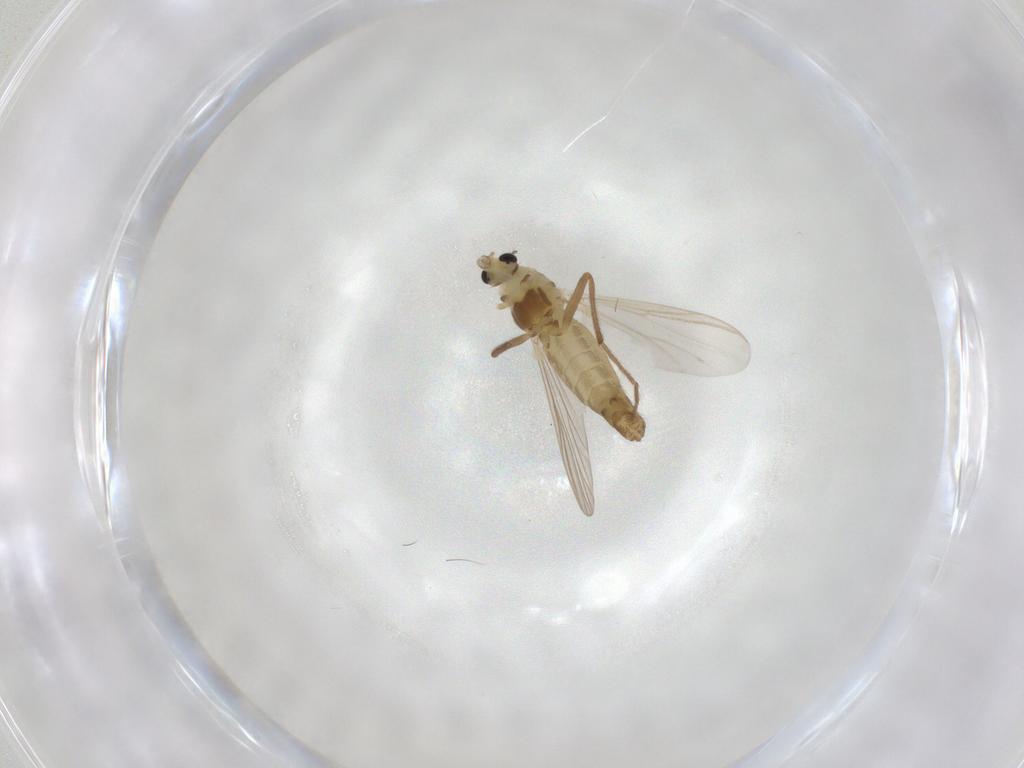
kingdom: Animalia
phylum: Arthropoda
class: Insecta
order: Diptera
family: Chironomidae
